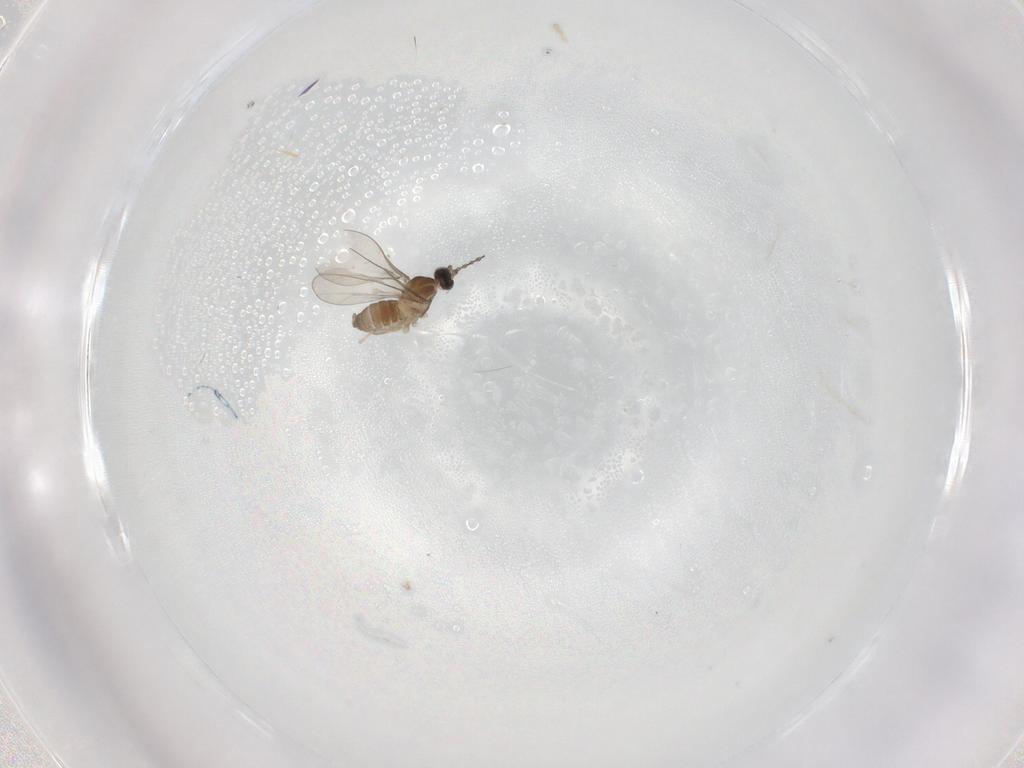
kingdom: Animalia
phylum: Arthropoda
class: Insecta
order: Diptera
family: Cecidomyiidae
